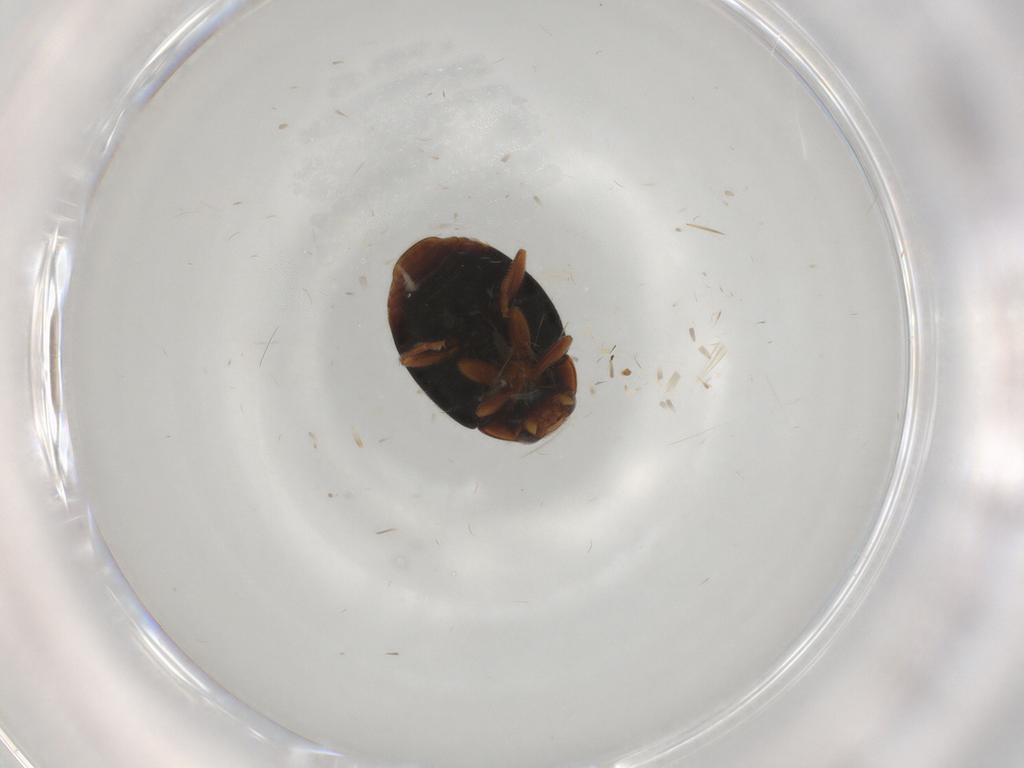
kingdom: Animalia
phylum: Arthropoda
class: Insecta
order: Coleoptera
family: Coccinellidae
